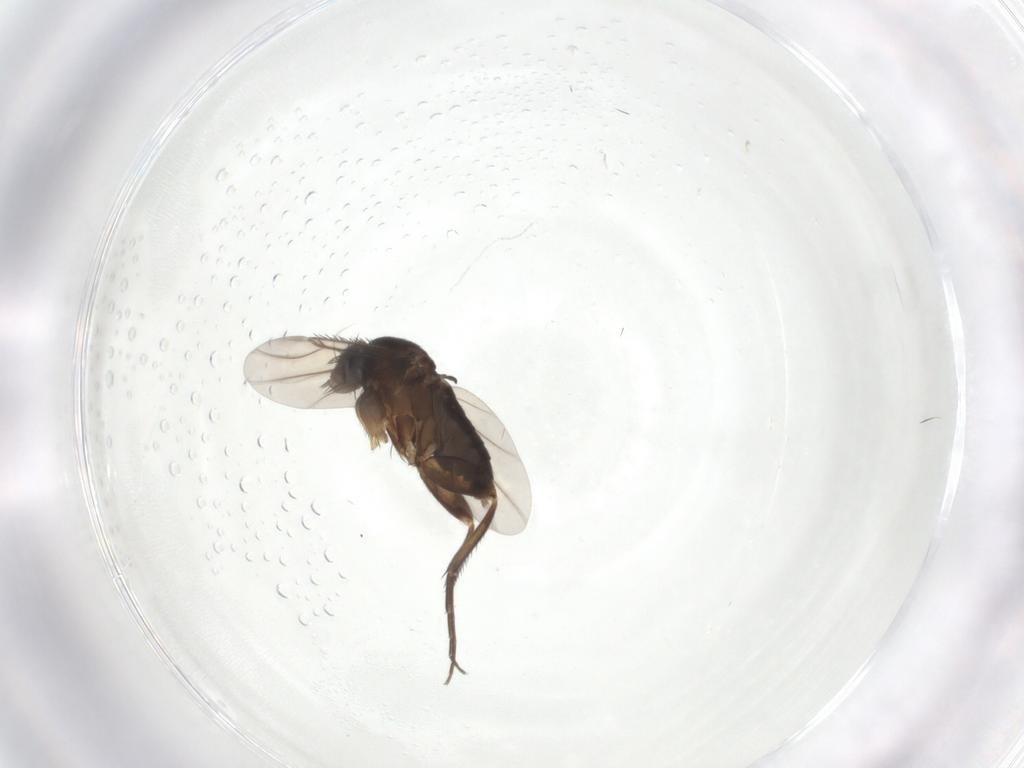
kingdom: Animalia
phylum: Arthropoda
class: Insecta
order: Diptera
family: Phoridae
